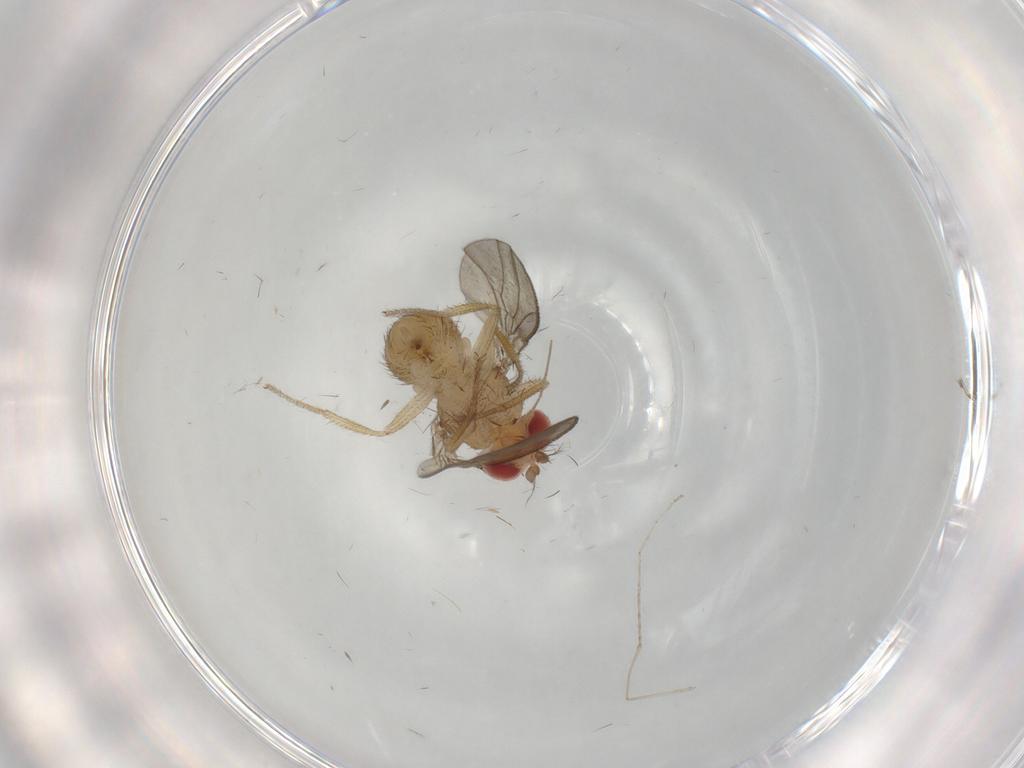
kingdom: Animalia
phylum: Arthropoda
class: Insecta
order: Diptera
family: Drosophilidae
